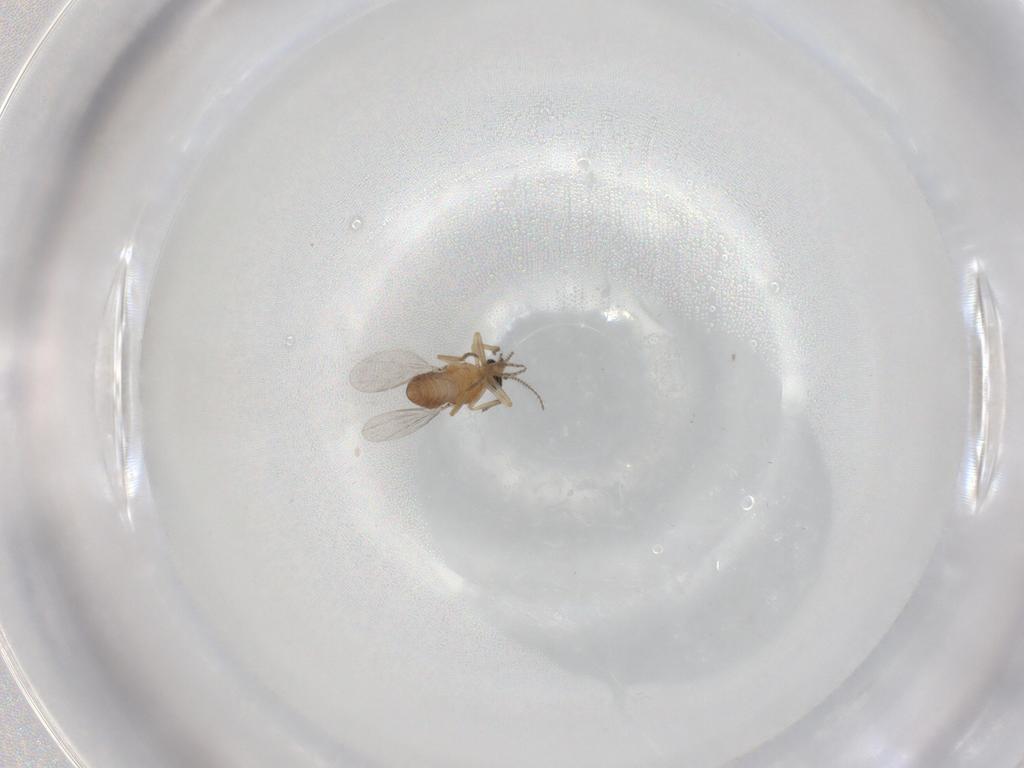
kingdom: Animalia
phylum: Arthropoda
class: Insecta
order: Diptera
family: Ceratopogonidae
